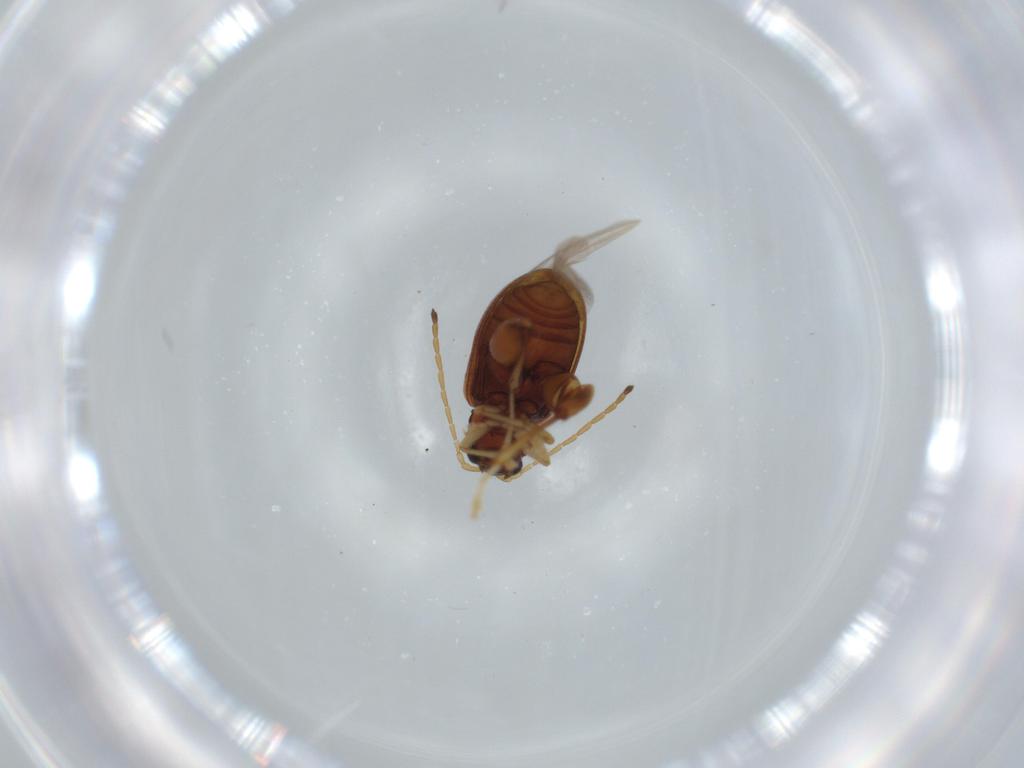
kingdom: Animalia
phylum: Arthropoda
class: Insecta
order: Coleoptera
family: Chrysomelidae
